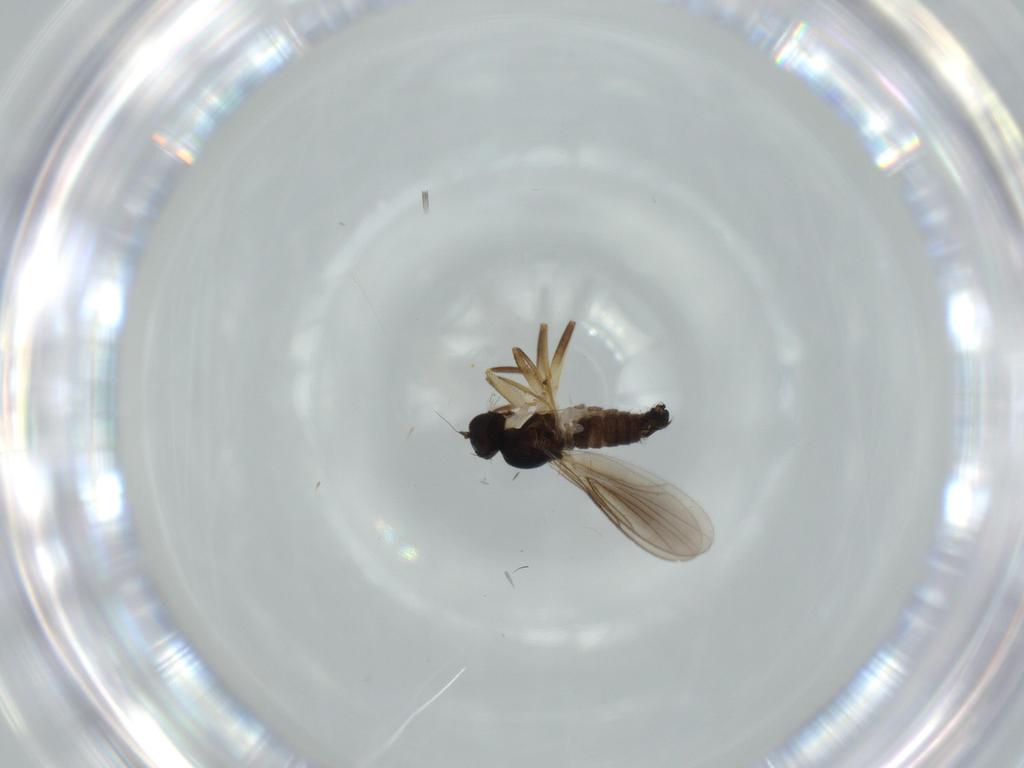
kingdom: Animalia
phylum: Arthropoda
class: Insecta
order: Diptera
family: Hybotidae
